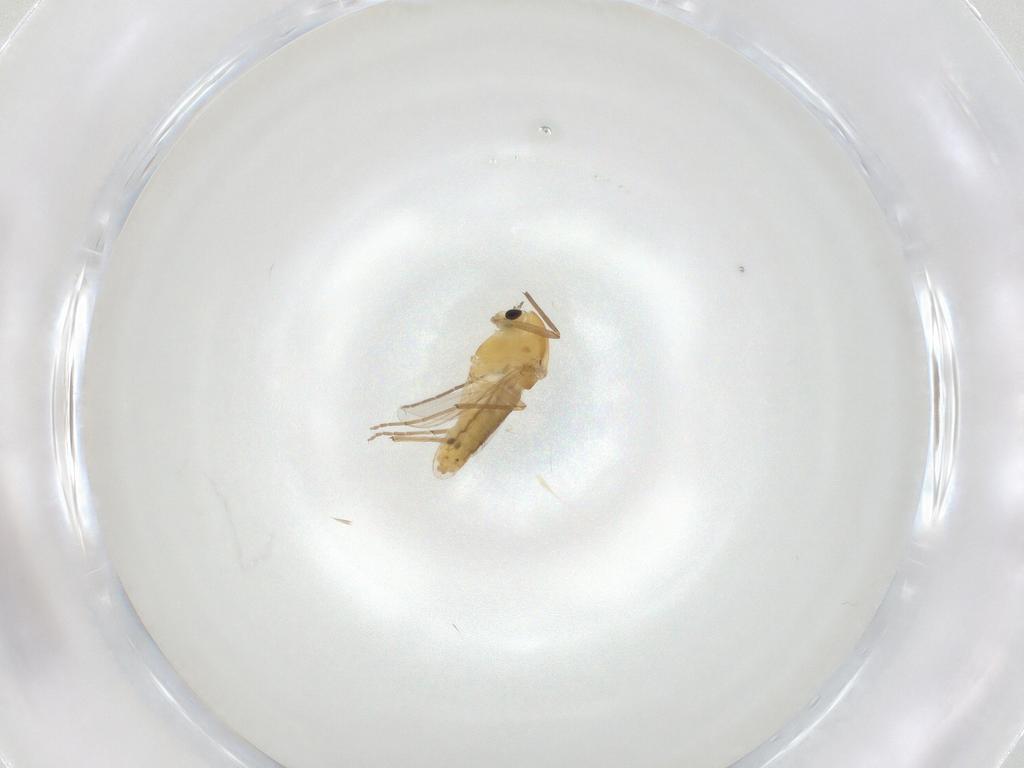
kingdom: Animalia
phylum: Arthropoda
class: Insecta
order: Diptera
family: Chironomidae
